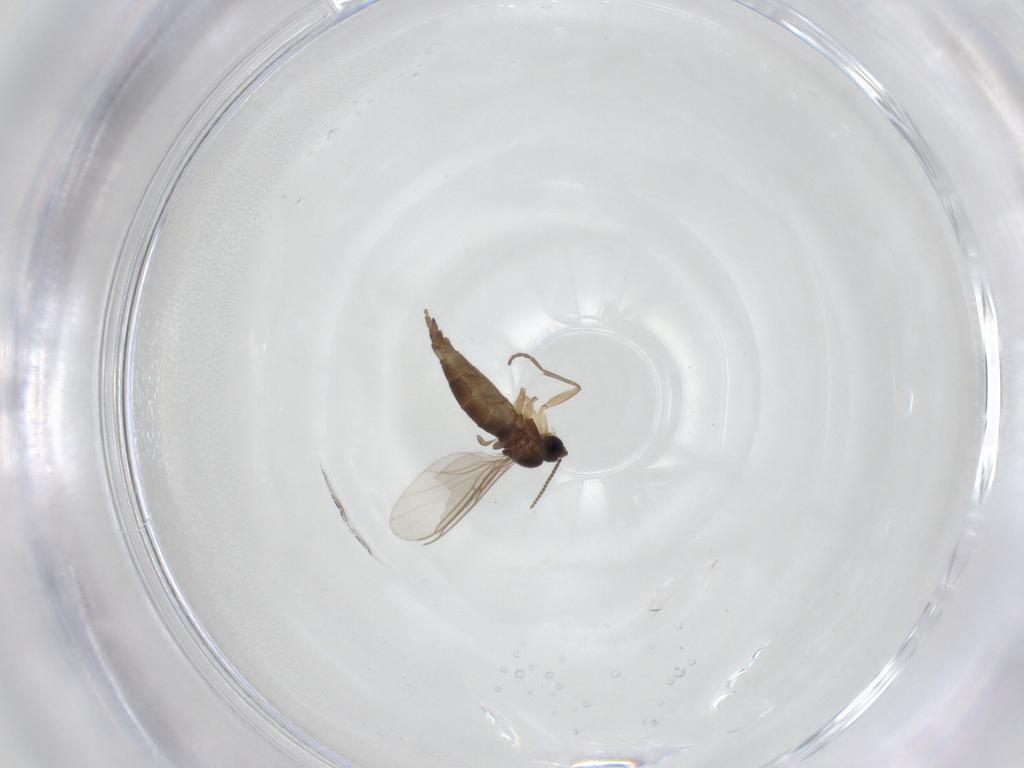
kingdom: Animalia
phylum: Arthropoda
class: Insecta
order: Diptera
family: Sciaridae
